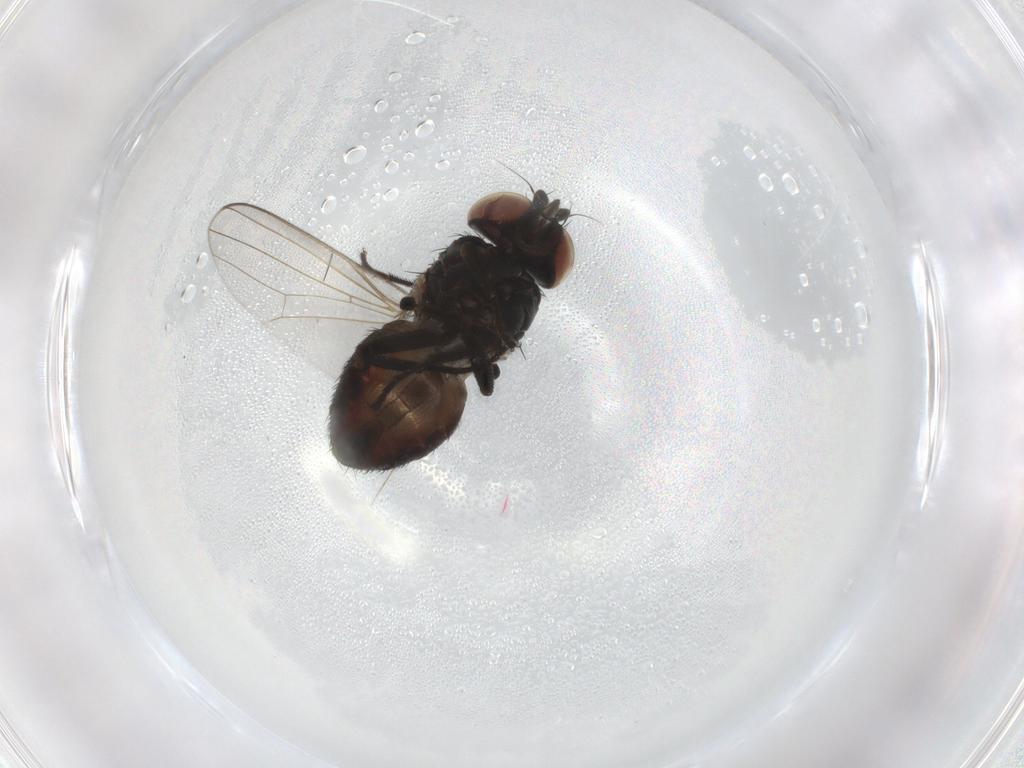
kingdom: Animalia
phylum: Arthropoda
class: Insecta
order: Diptera
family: Milichiidae
